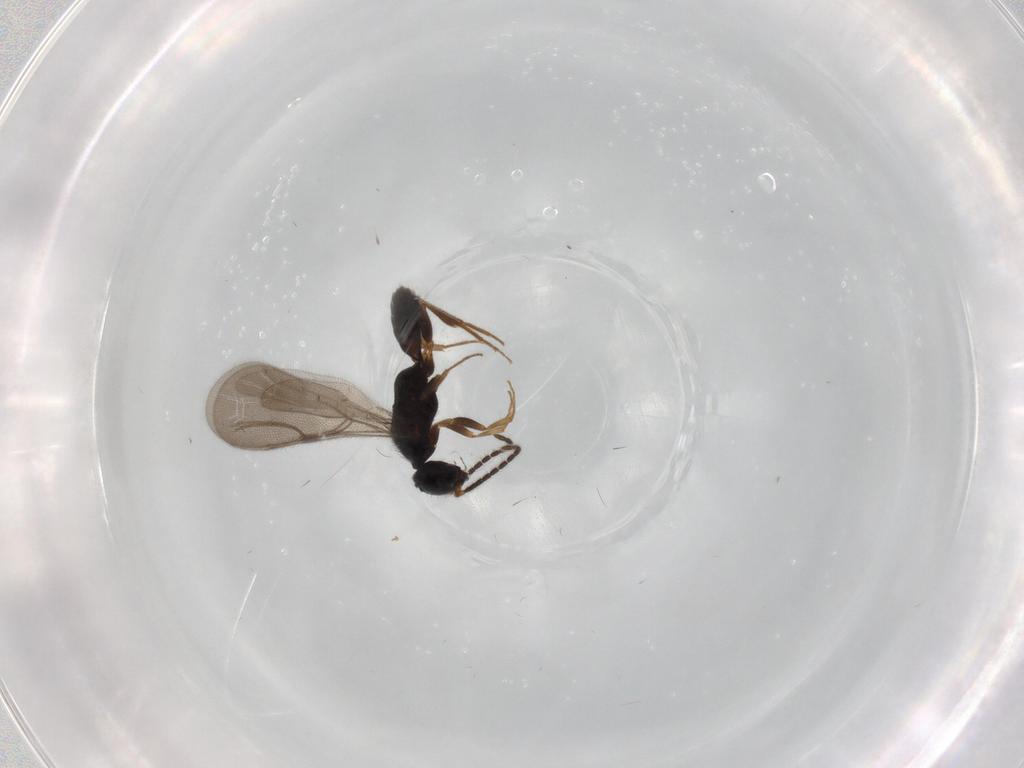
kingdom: Animalia
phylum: Arthropoda
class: Insecta
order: Hymenoptera
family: Bethylidae
